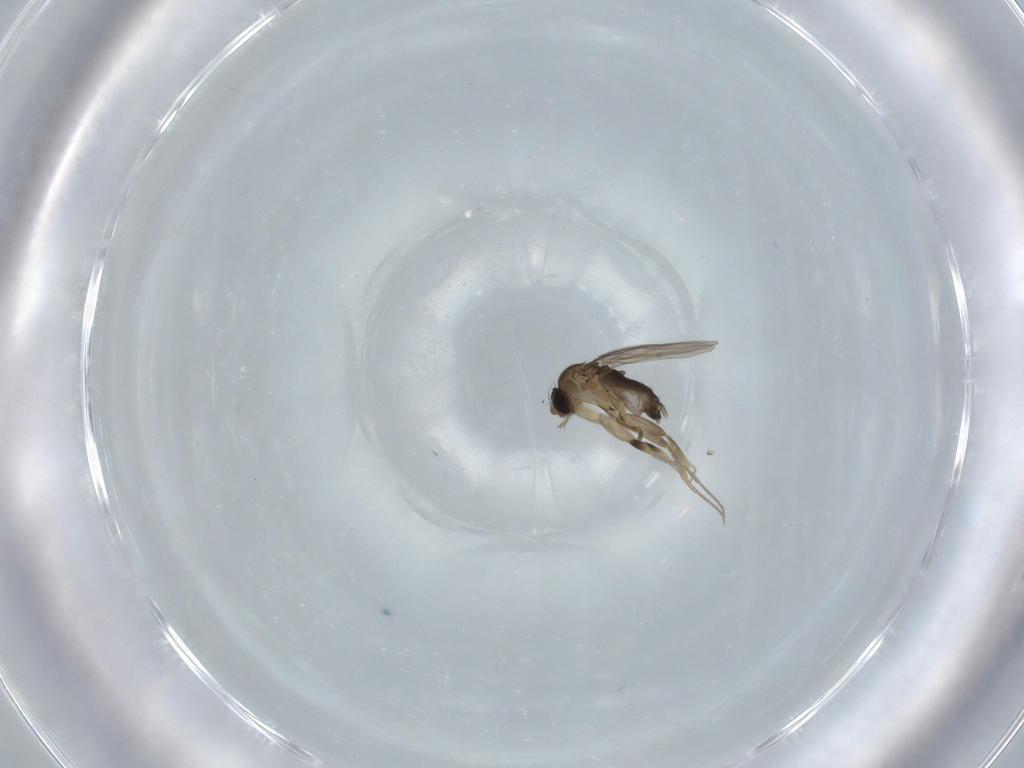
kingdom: Animalia
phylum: Arthropoda
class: Insecta
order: Diptera
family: Phoridae
